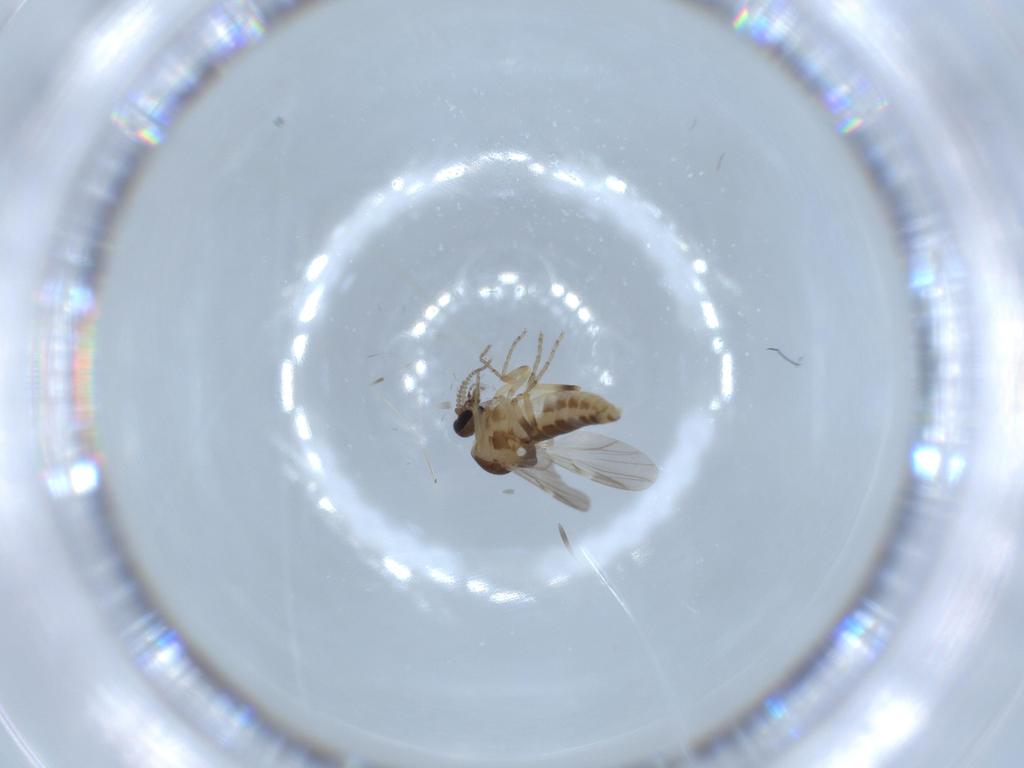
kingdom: Animalia
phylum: Arthropoda
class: Insecta
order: Diptera
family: Ceratopogonidae
